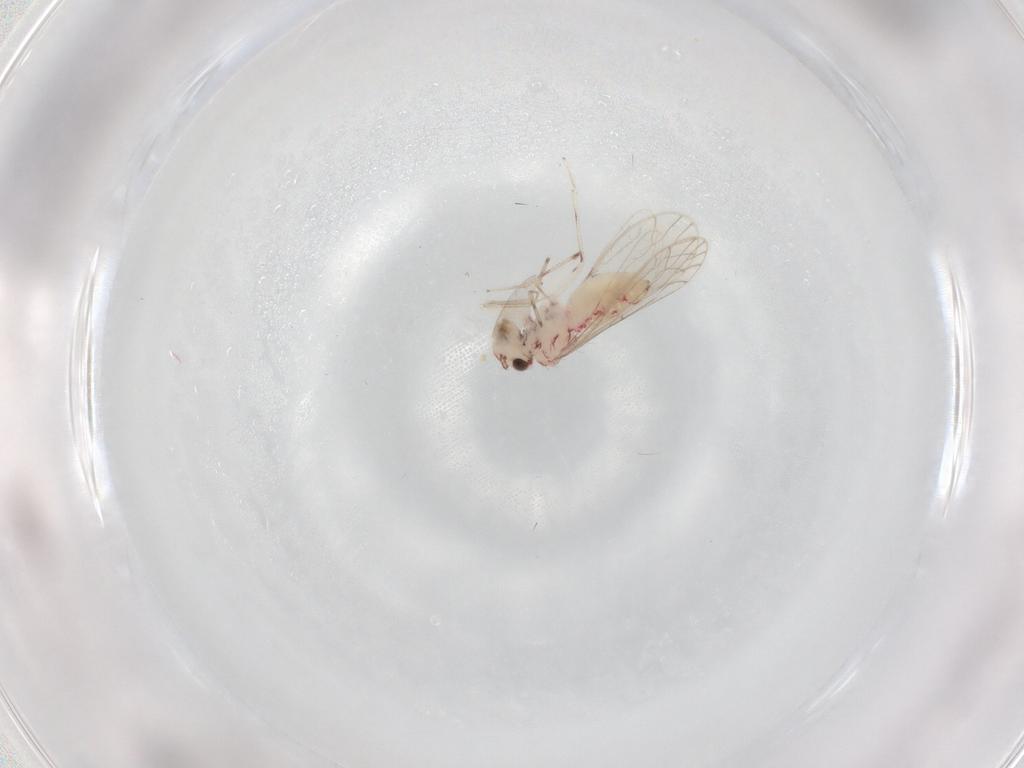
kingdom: Animalia
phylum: Arthropoda
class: Insecta
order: Psocodea
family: Caeciliusidae
